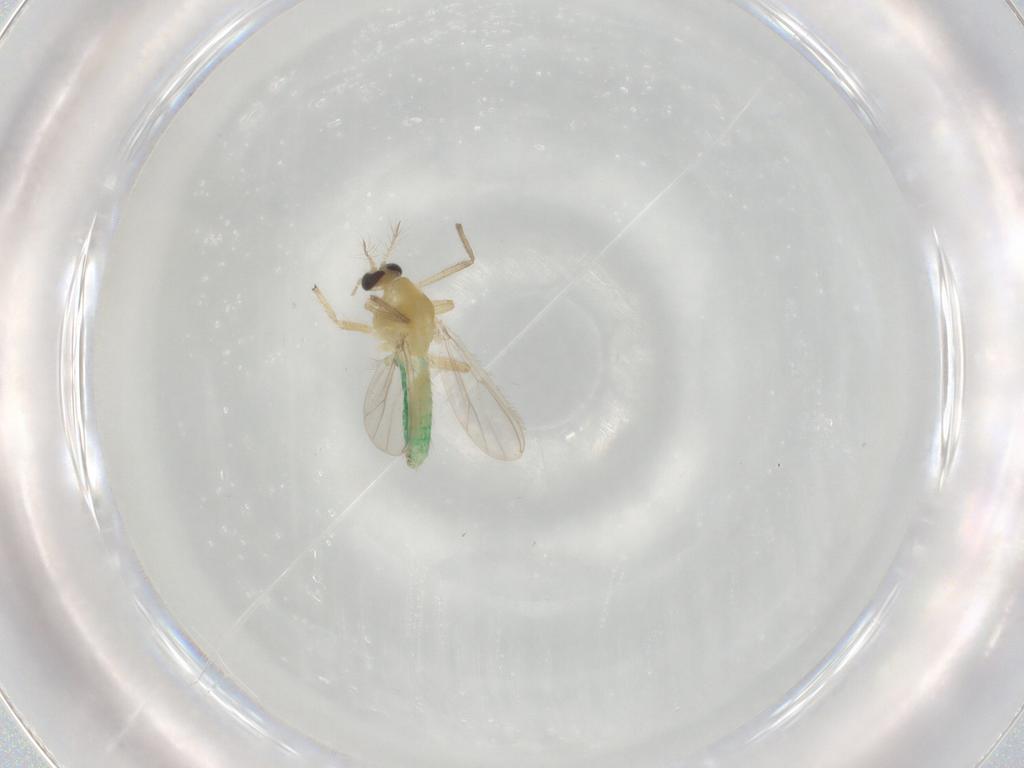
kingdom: Animalia
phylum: Arthropoda
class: Insecta
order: Diptera
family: Chironomidae
